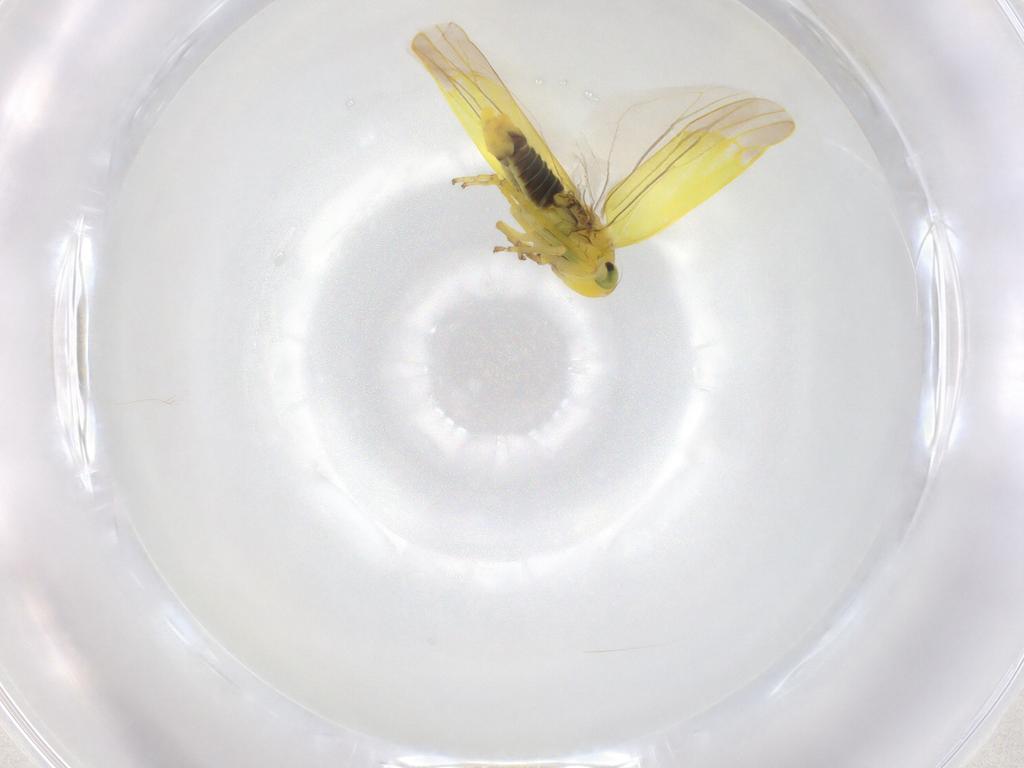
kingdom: Animalia
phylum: Arthropoda
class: Insecta
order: Hemiptera
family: Cicadellidae
